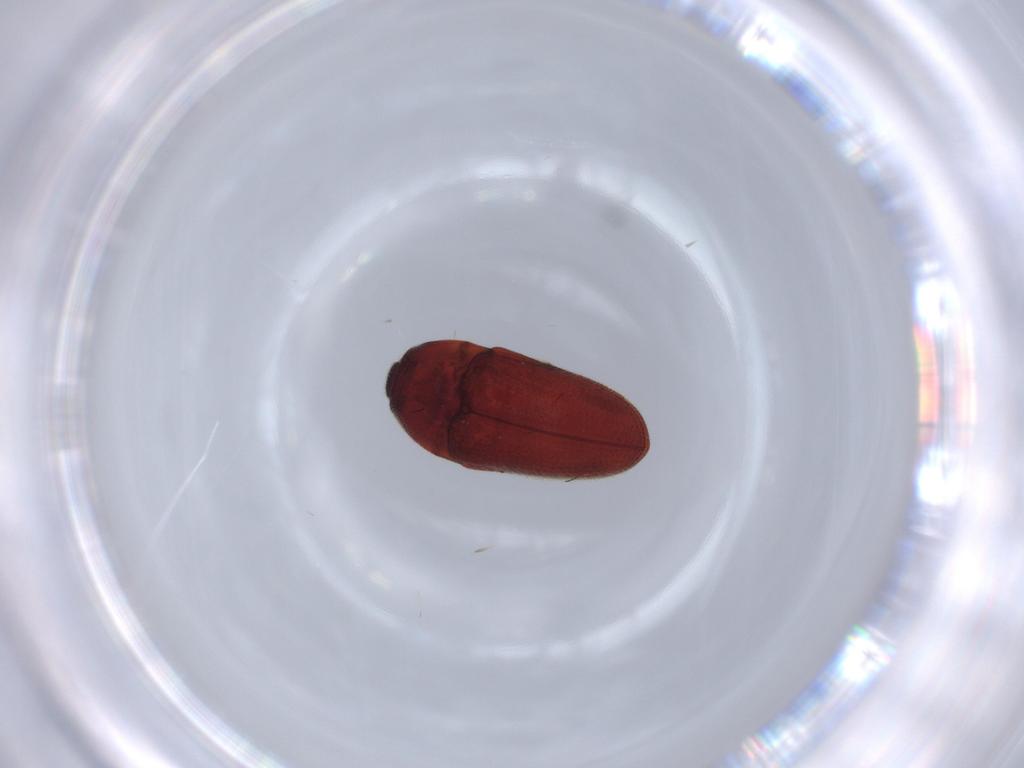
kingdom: Animalia
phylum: Arthropoda
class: Insecta
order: Coleoptera
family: Throscidae
